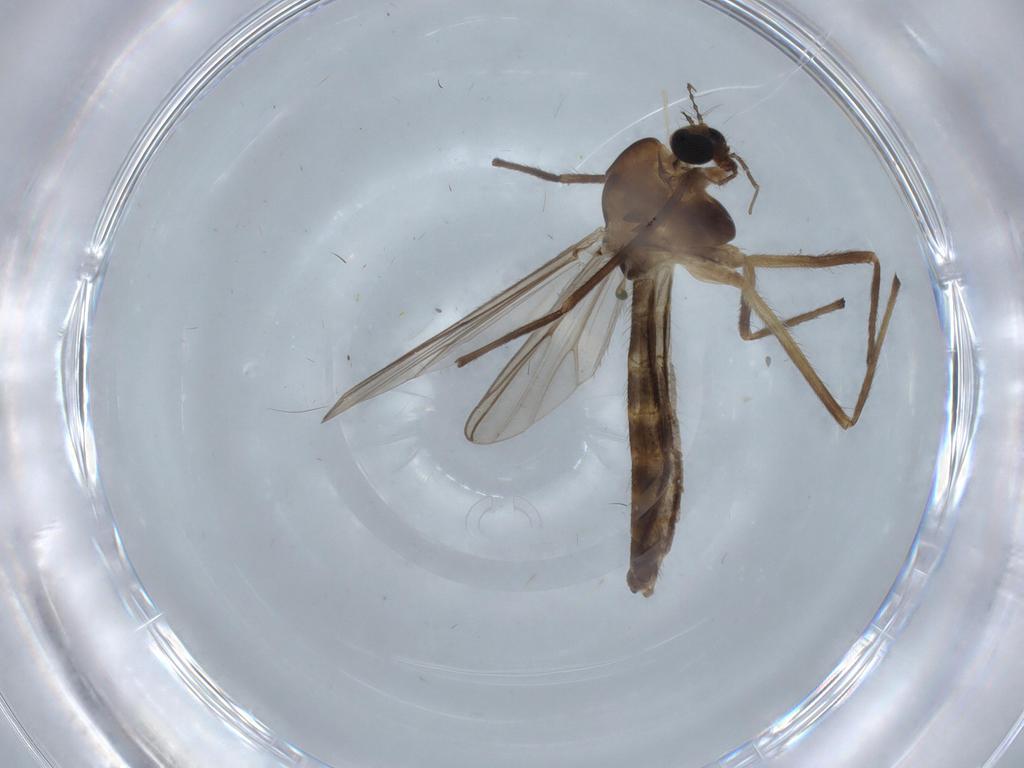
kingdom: Animalia
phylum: Arthropoda
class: Insecta
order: Diptera
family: Chironomidae
